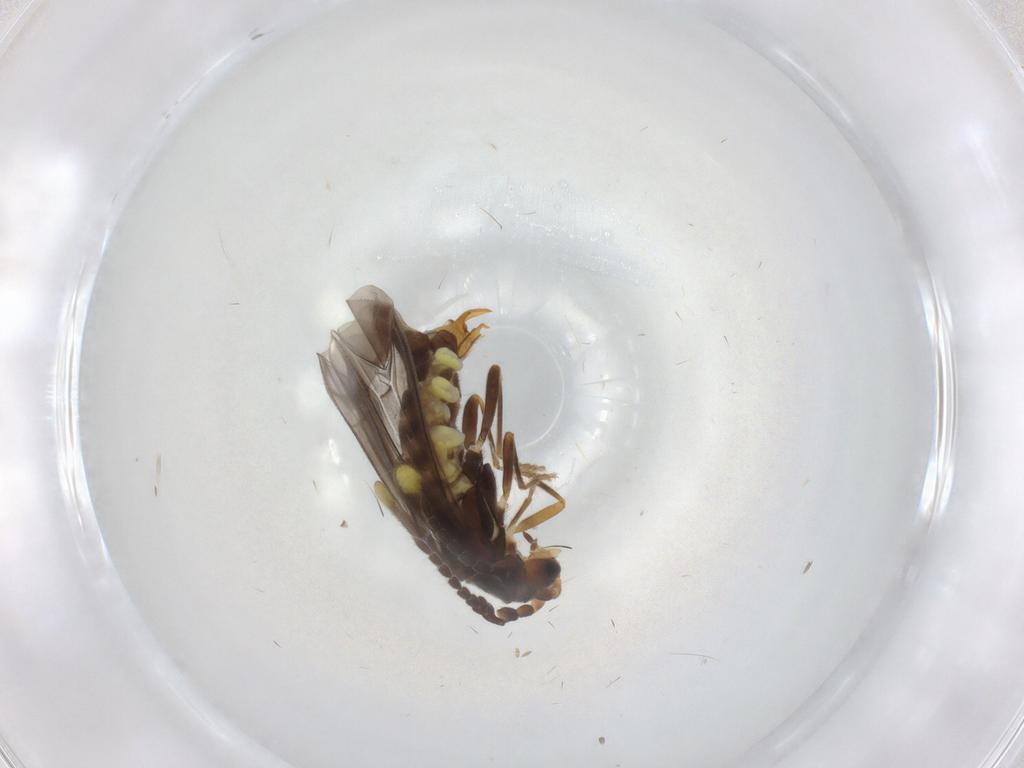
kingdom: Animalia
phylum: Arthropoda
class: Insecta
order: Coleoptera
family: Cantharidae
